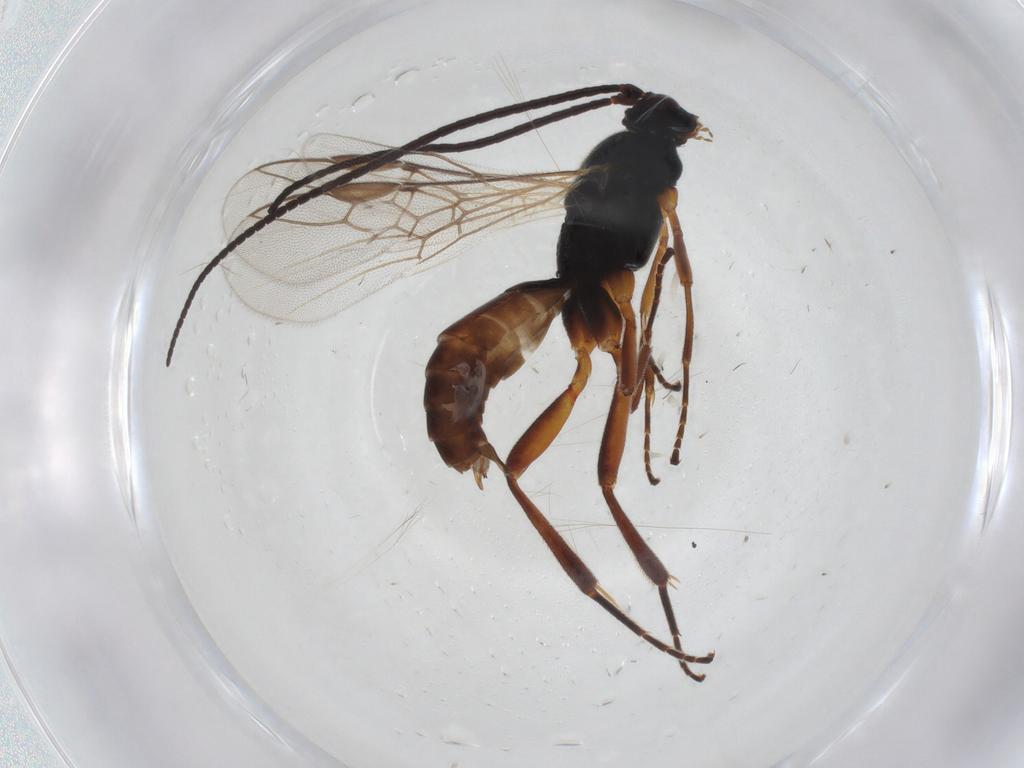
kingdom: Animalia
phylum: Arthropoda
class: Insecta
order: Hymenoptera
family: Braconidae
